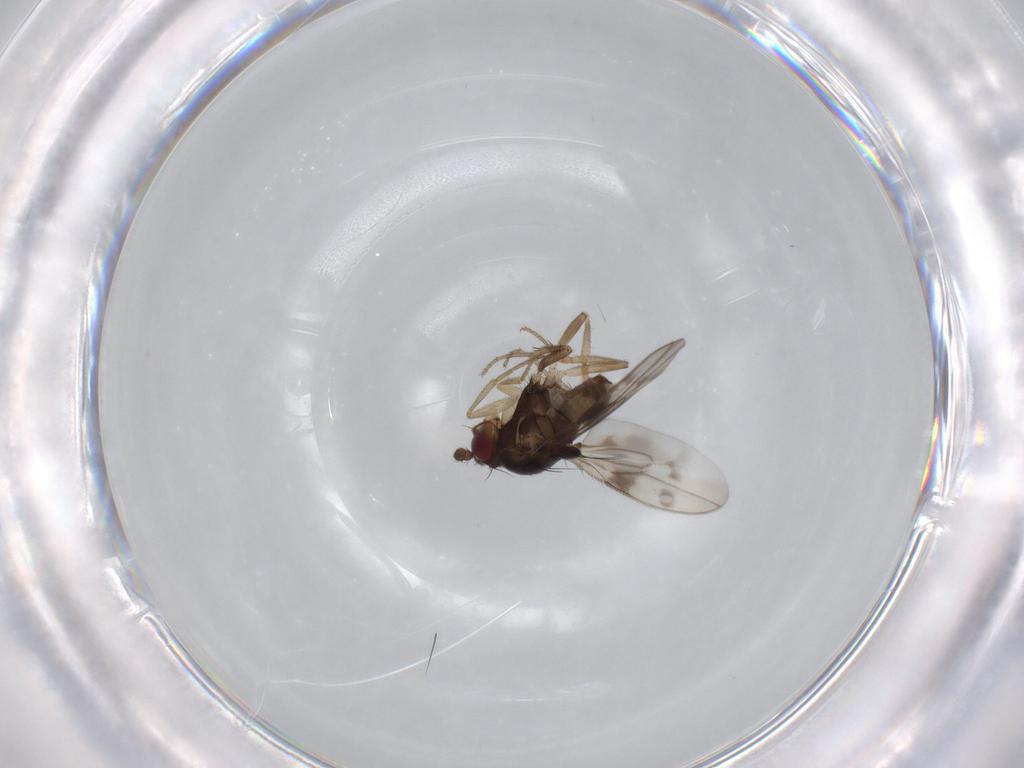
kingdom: Animalia
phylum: Arthropoda
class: Insecta
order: Diptera
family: Sphaeroceridae
